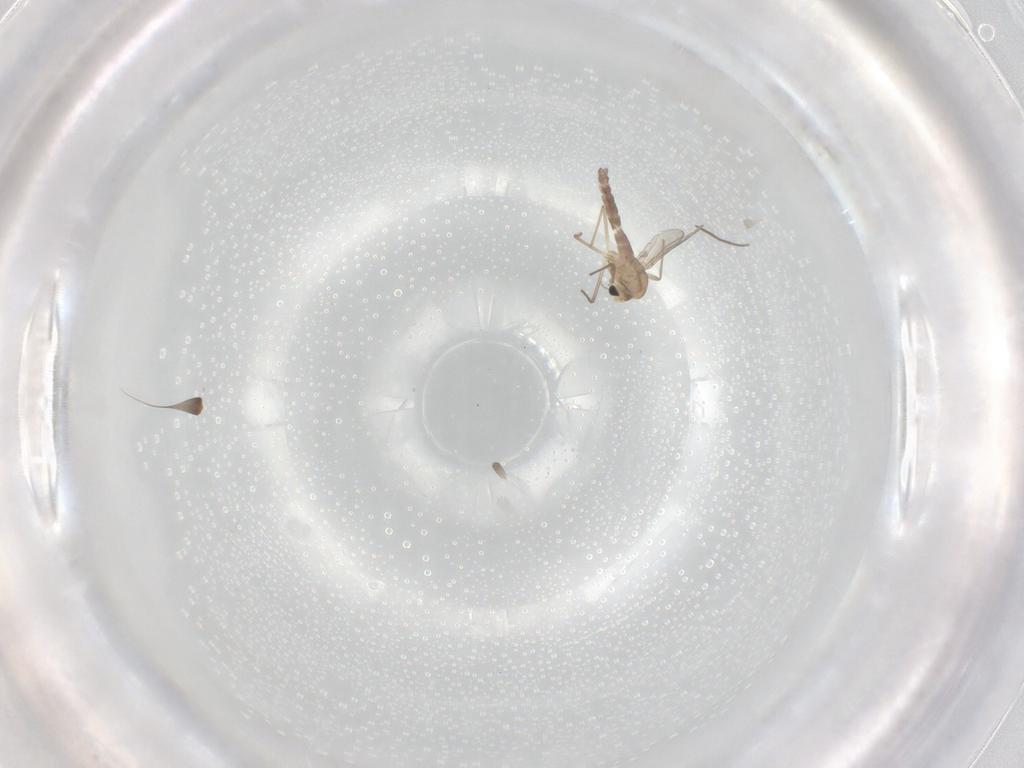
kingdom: Animalia
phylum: Arthropoda
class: Insecta
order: Diptera
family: Chironomidae
